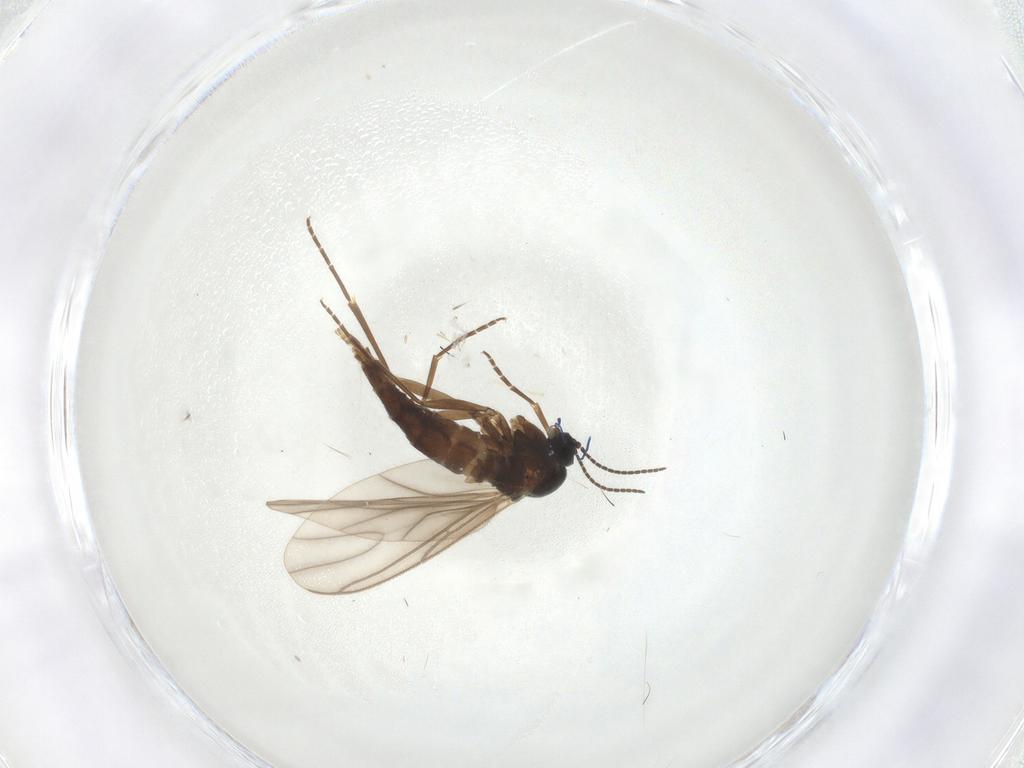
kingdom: Animalia
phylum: Arthropoda
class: Insecta
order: Diptera
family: Sciaridae
